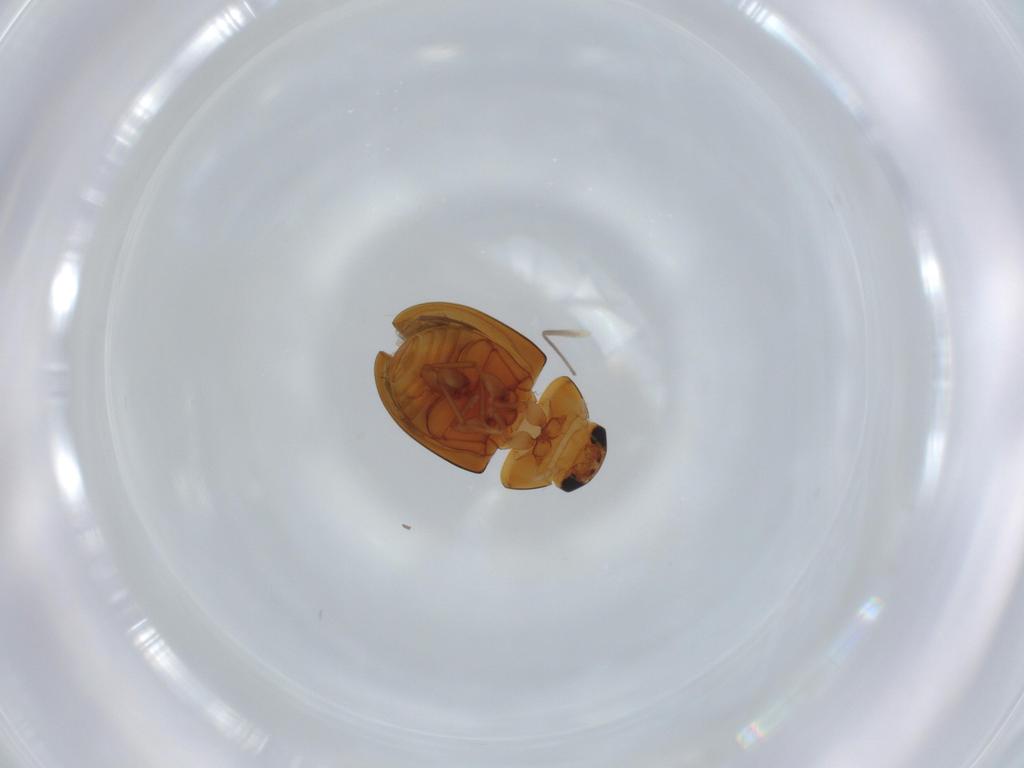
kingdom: Animalia
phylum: Arthropoda
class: Insecta
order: Coleoptera
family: Phalacridae
